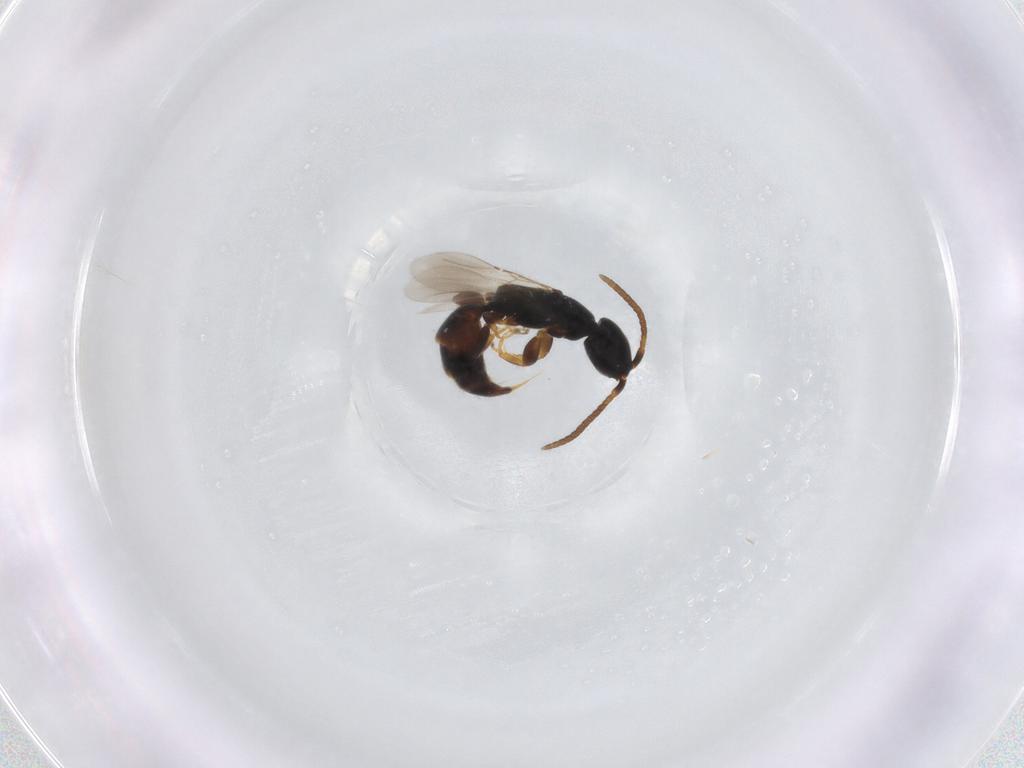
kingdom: Animalia
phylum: Arthropoda
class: Insecta
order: Hymenoptera
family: Bethylidae
